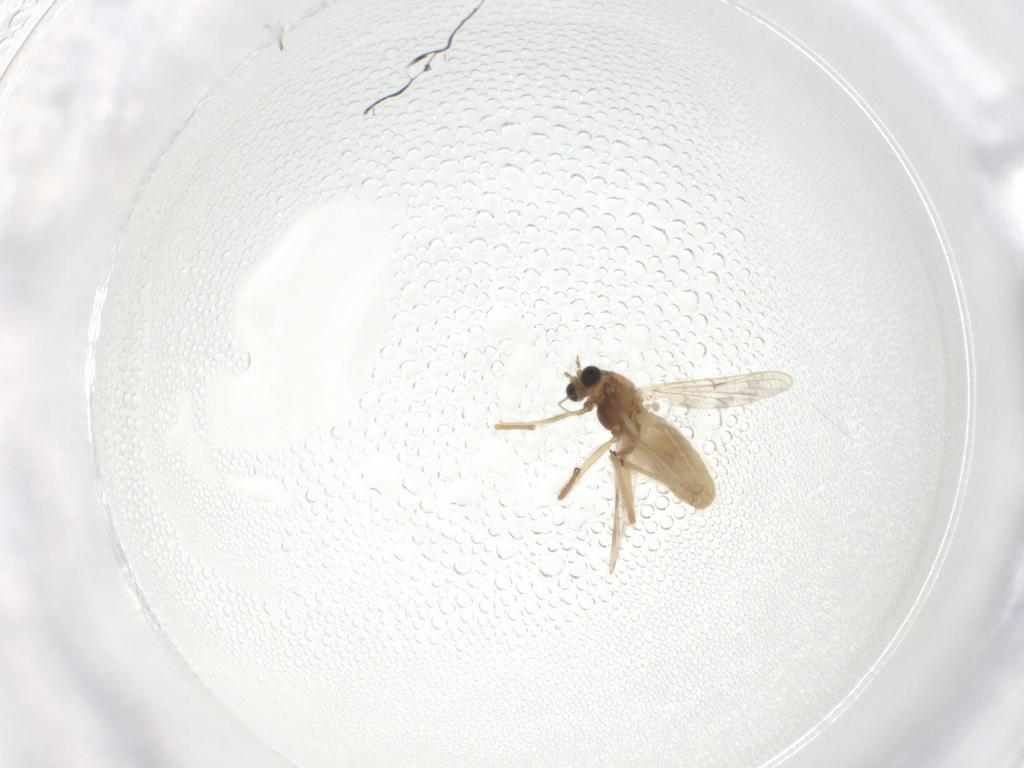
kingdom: Animalia
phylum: Arthropoda
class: Insecta
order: Diptera
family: Chironomidae
